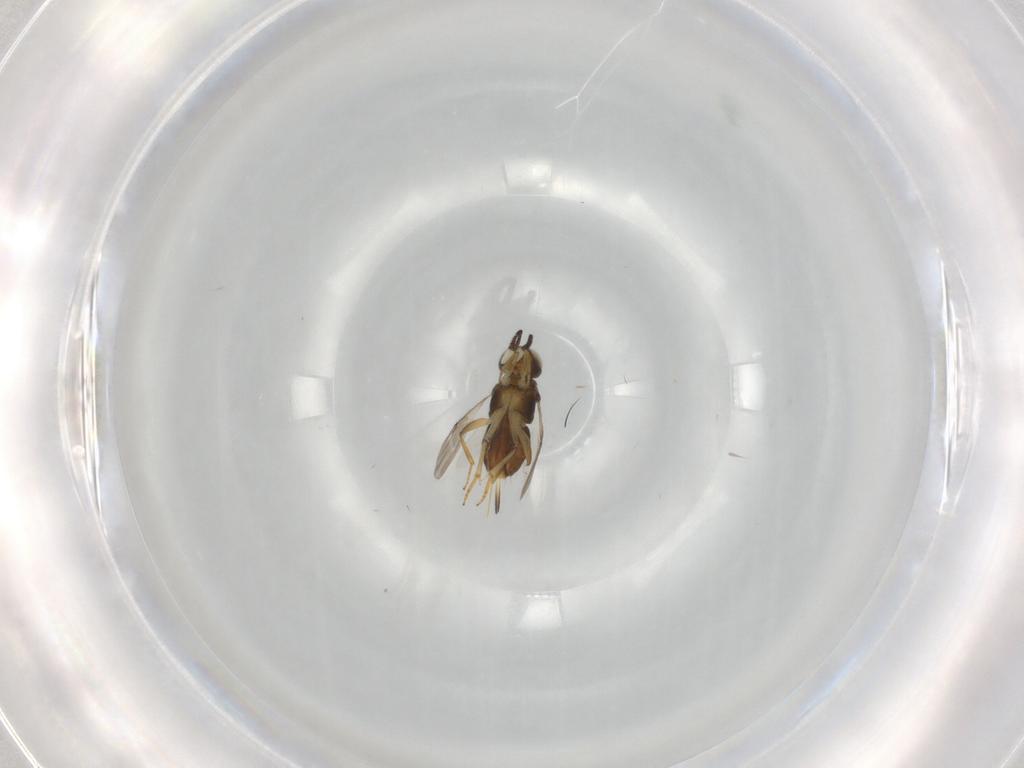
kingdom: Animalia
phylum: Arthropoda
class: Insecta
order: Hymenoptera
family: Encyrtidae
